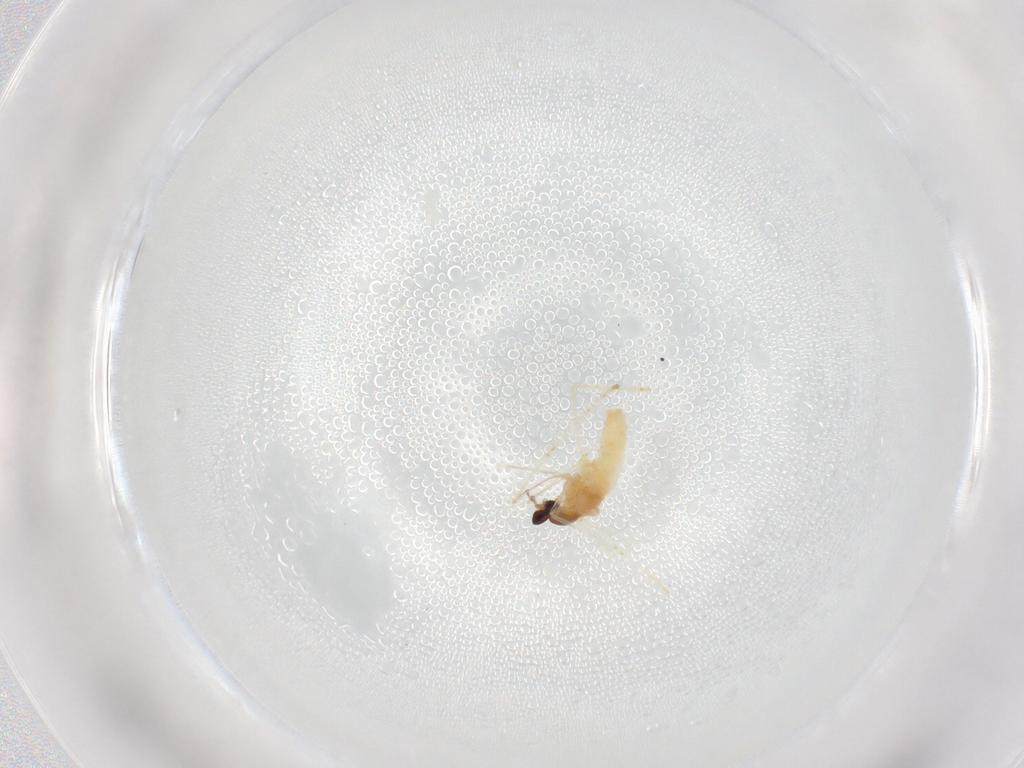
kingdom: Animalia
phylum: Arthropoda
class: Insecta
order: Diptera
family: Cecidomyiidae
